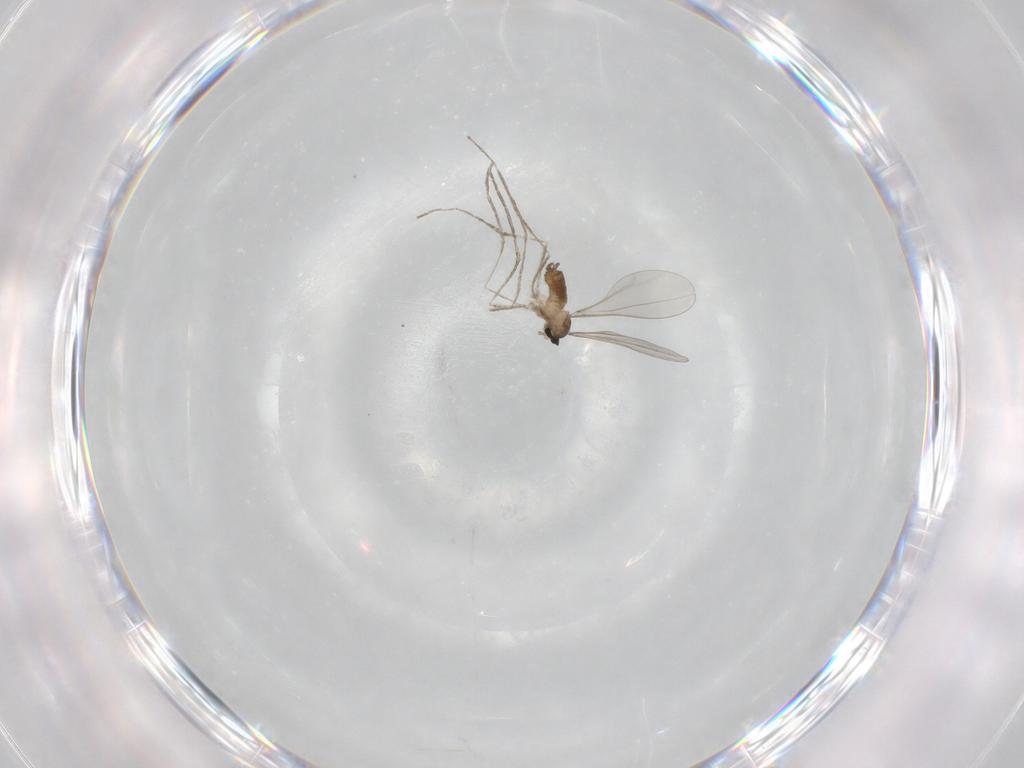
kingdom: Animalia
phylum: Arthropoda
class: Insecta
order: Diptera
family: Cecidomyiidae
